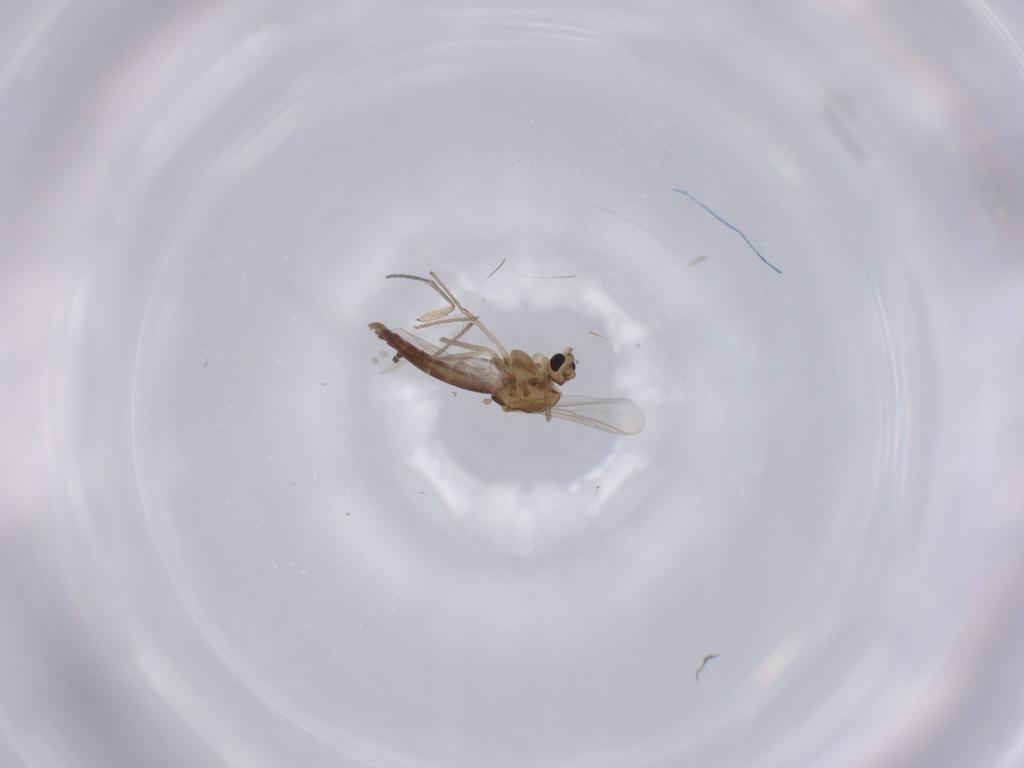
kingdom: Animalia
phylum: Arthropoda
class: Insecta
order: Diptera
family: Chironomidae
